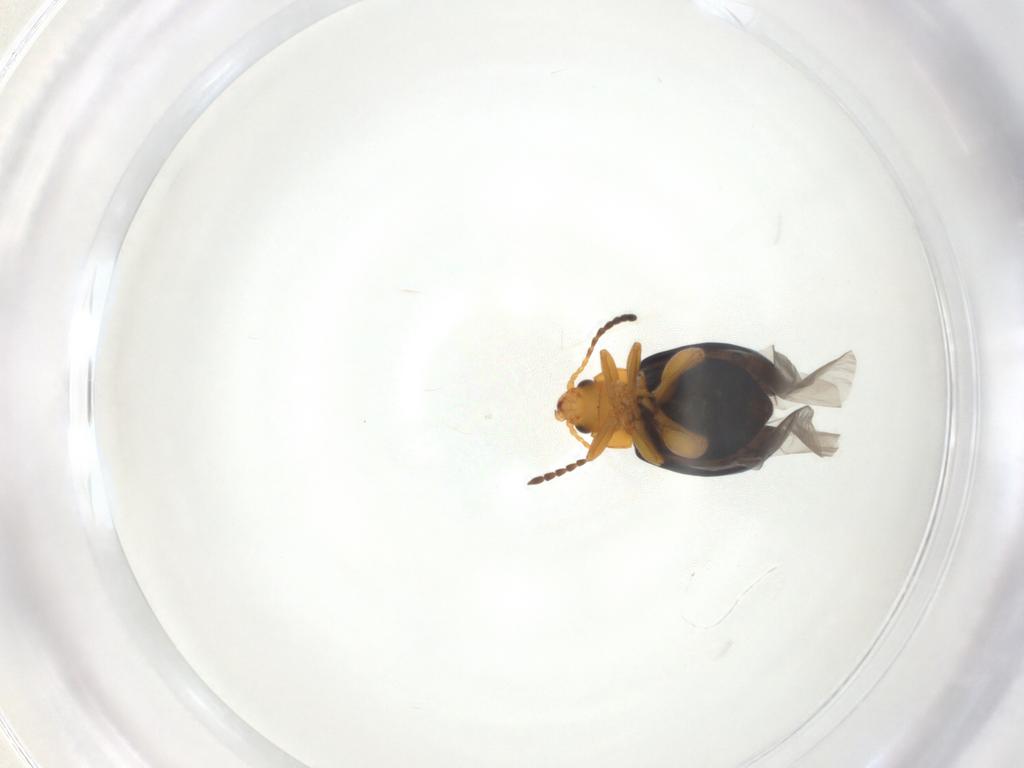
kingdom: Animalia
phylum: Arthropoda
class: Insecta
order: Coleoptera
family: Chrysomelidae
